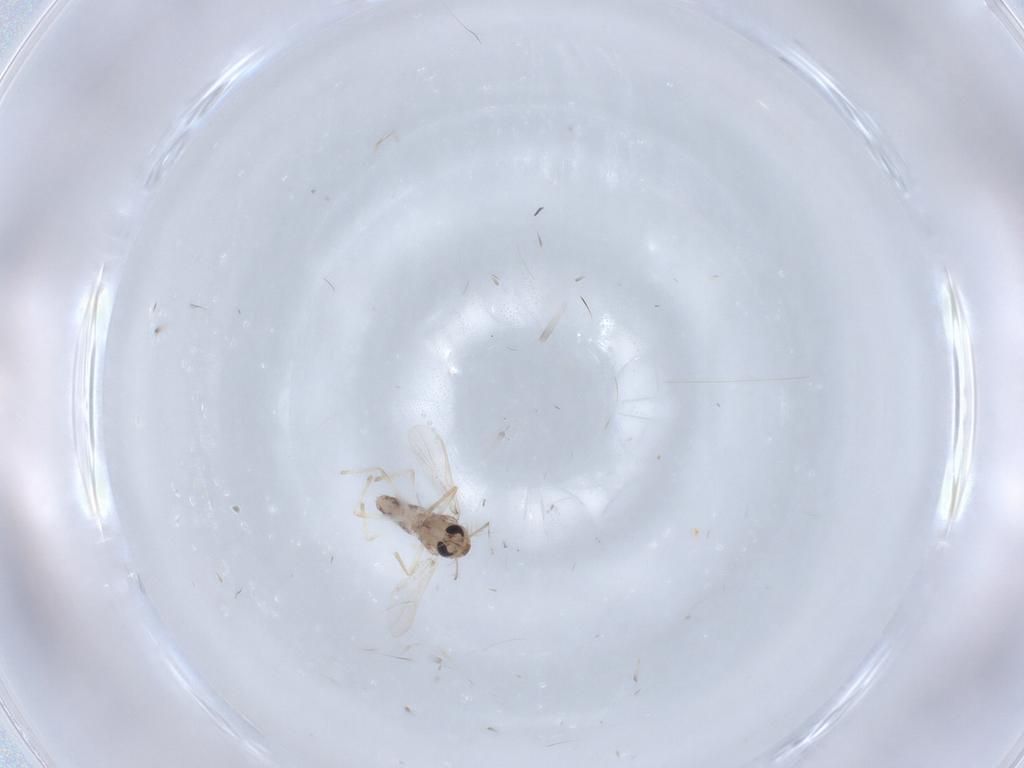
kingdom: Animalia
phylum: Arthropoda
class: Insecta
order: Diptera
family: Chironomidae
